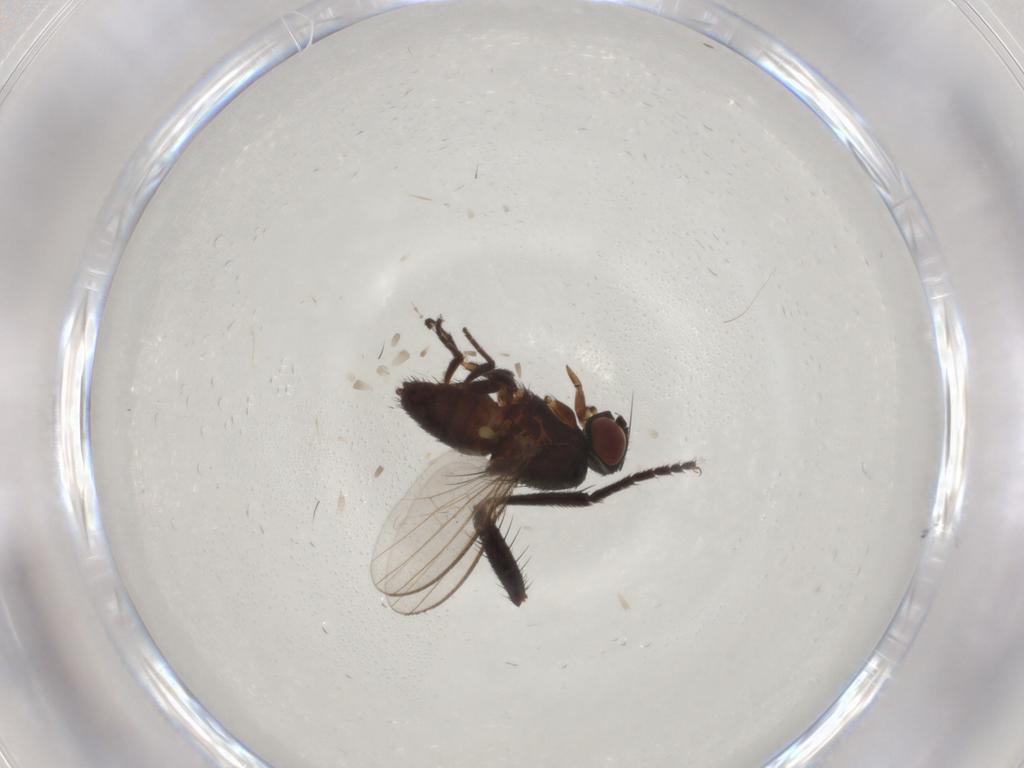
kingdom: Animalia
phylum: Arthropoda
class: Insecta
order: Diptera
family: Muscidae
